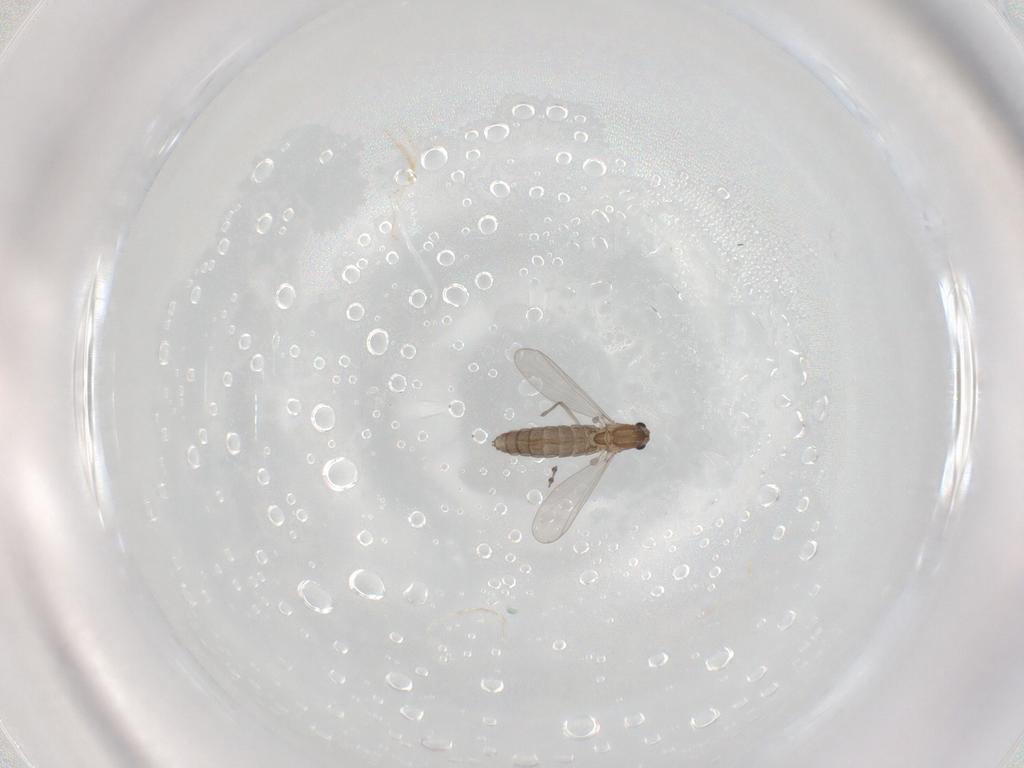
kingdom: Animalia
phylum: Arthropoda
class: Insecta
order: Diptera
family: Chironomidae
